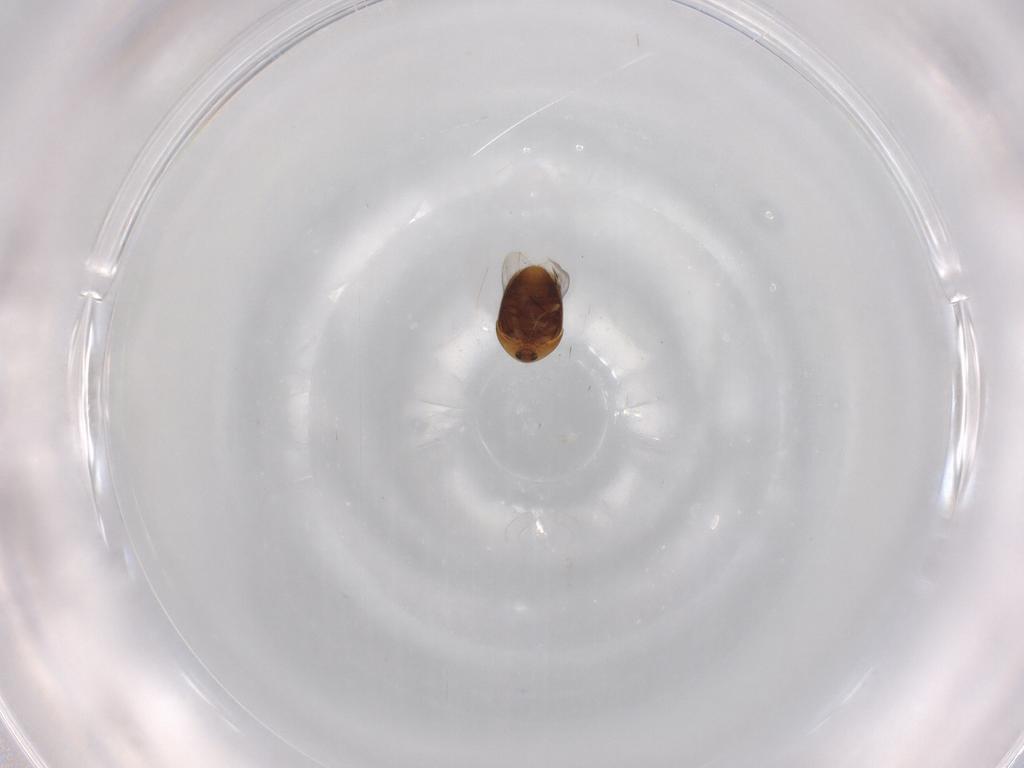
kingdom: Animalia
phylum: Arthropoda
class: Insecta
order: Coleoptera
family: Corylophidae
